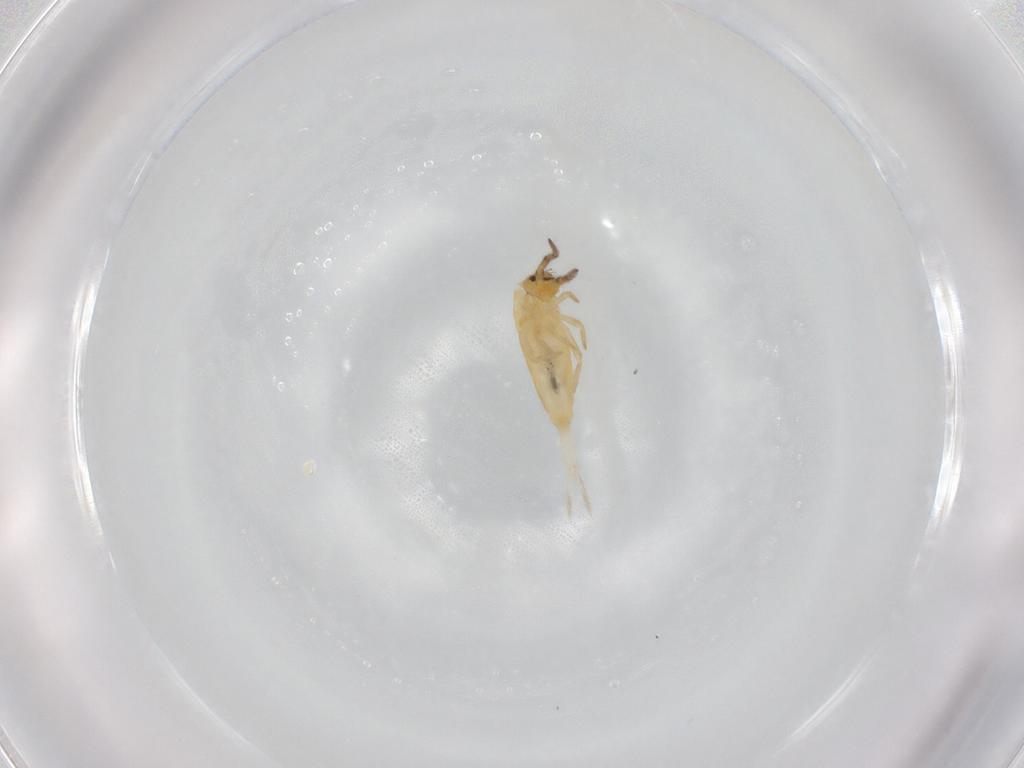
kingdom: Animalia
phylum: Arthropoda
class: Collembola
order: Entomobryomorpha
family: Entomobryidae
